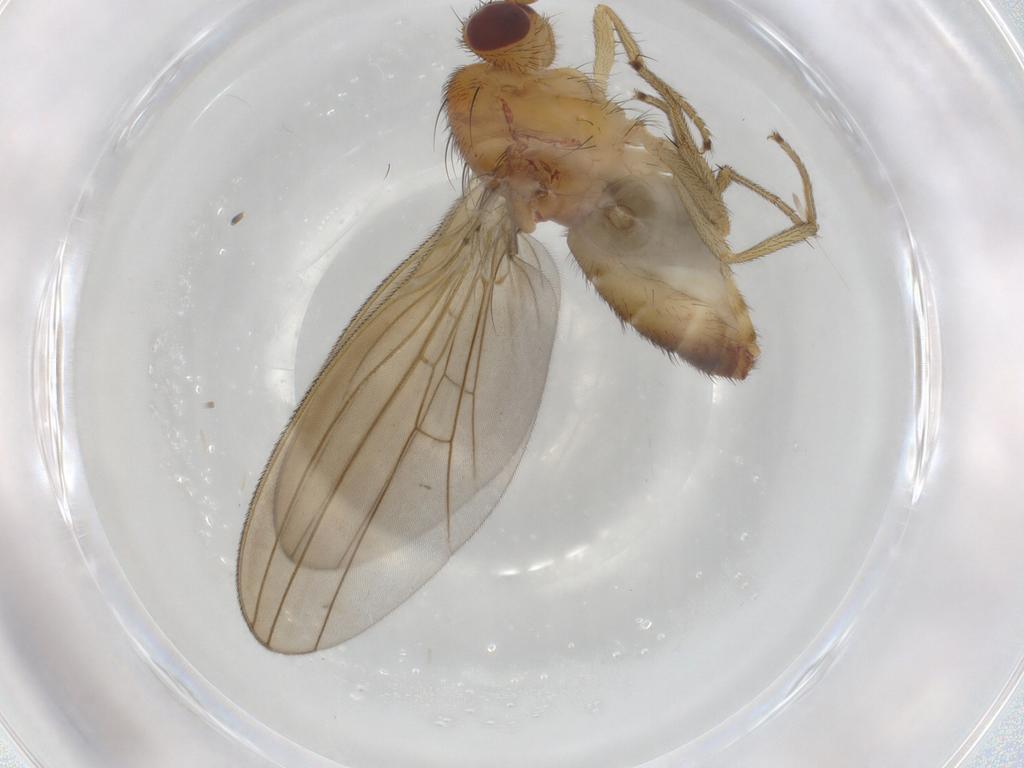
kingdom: Animalia
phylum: Arthropoda
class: Insecta
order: Diptera
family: Natalimyzidae
